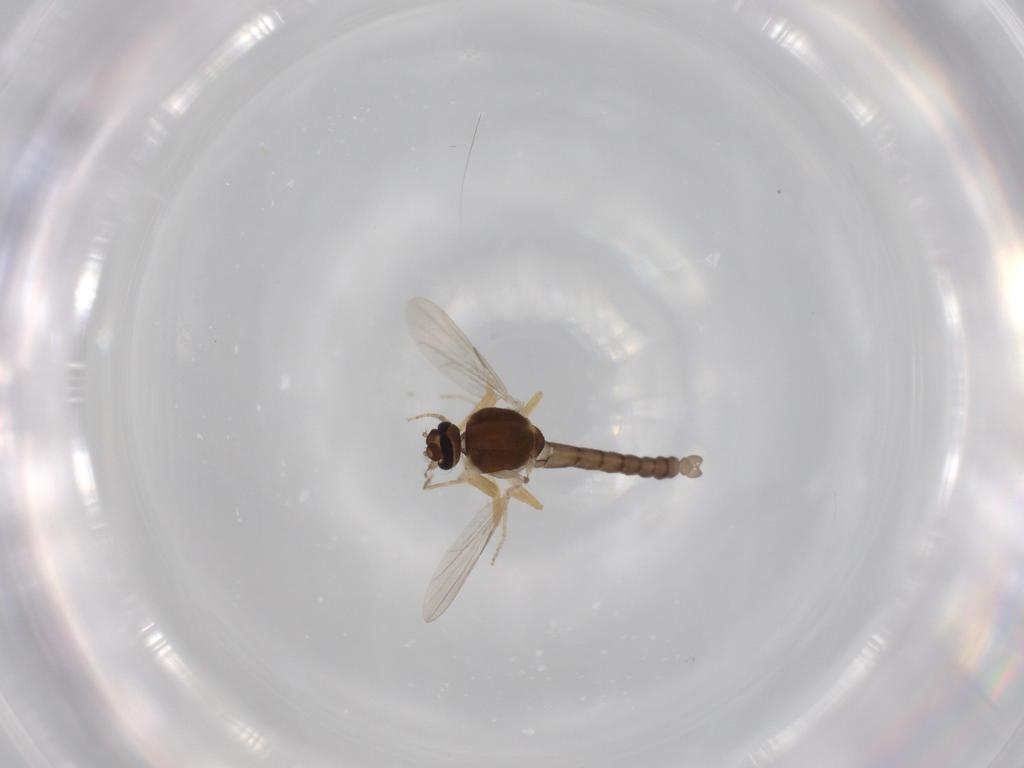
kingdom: Animalia
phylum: Arthropoda
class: Insecta
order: Diptera
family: Ceratopogonidae
